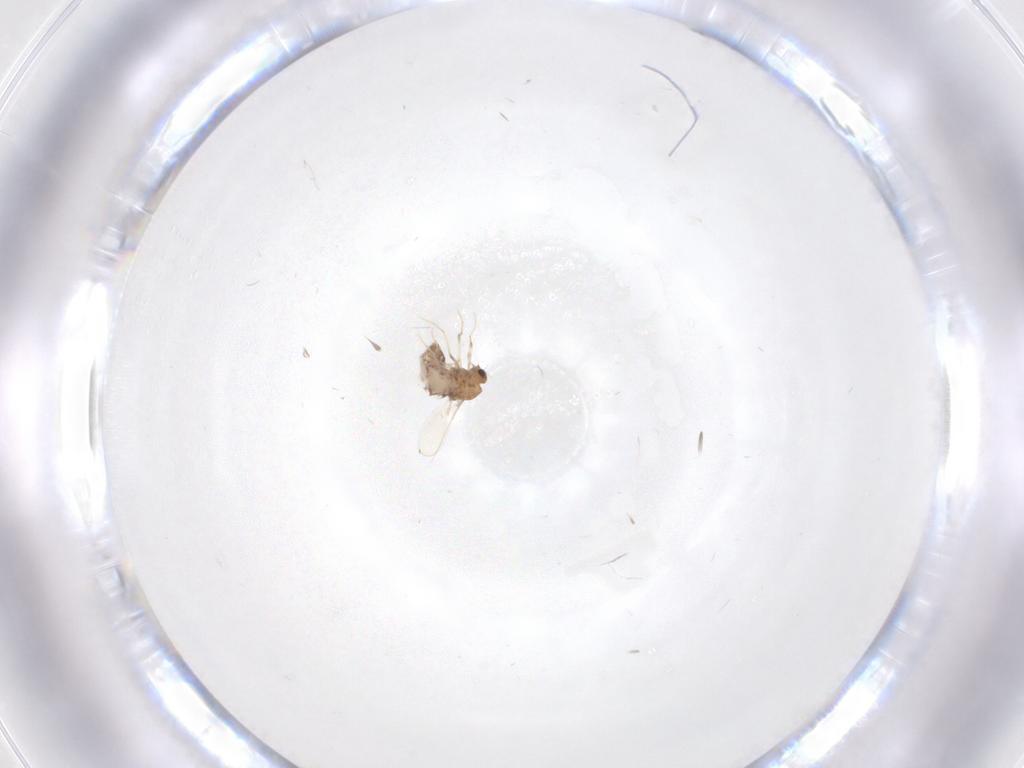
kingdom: Animalia
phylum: Arthropoda
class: Insecta
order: Diptera
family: Chironomidae
